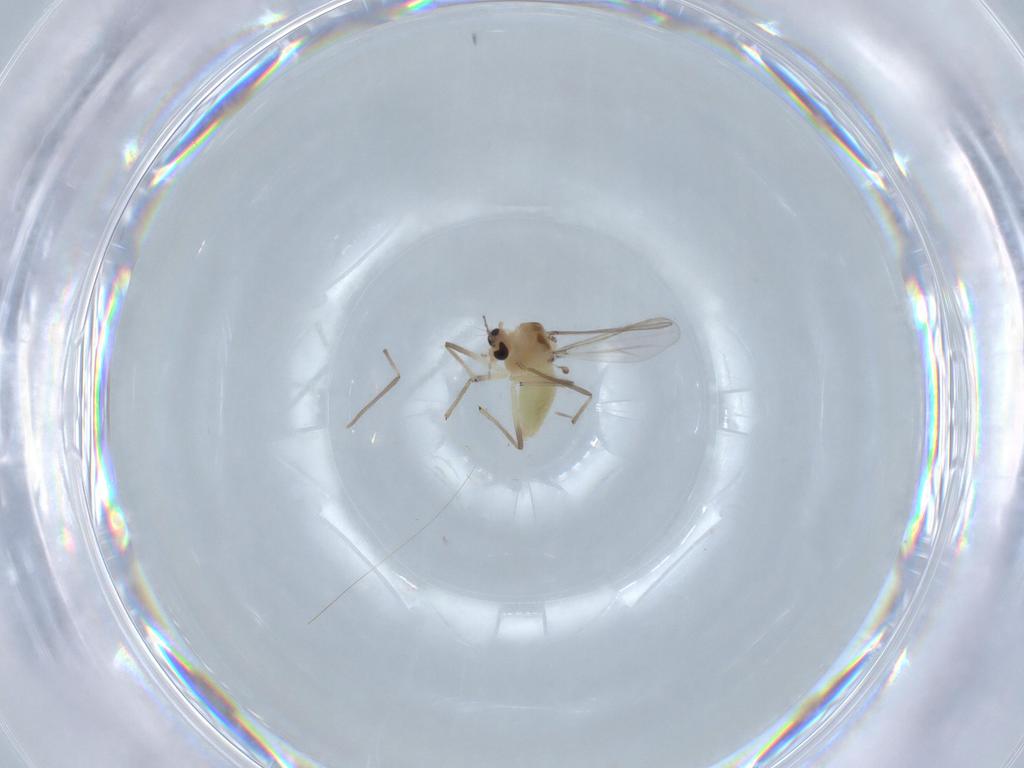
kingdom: Animalia
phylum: Arthropoda
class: Insecta
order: Diptera
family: Chironomidae
